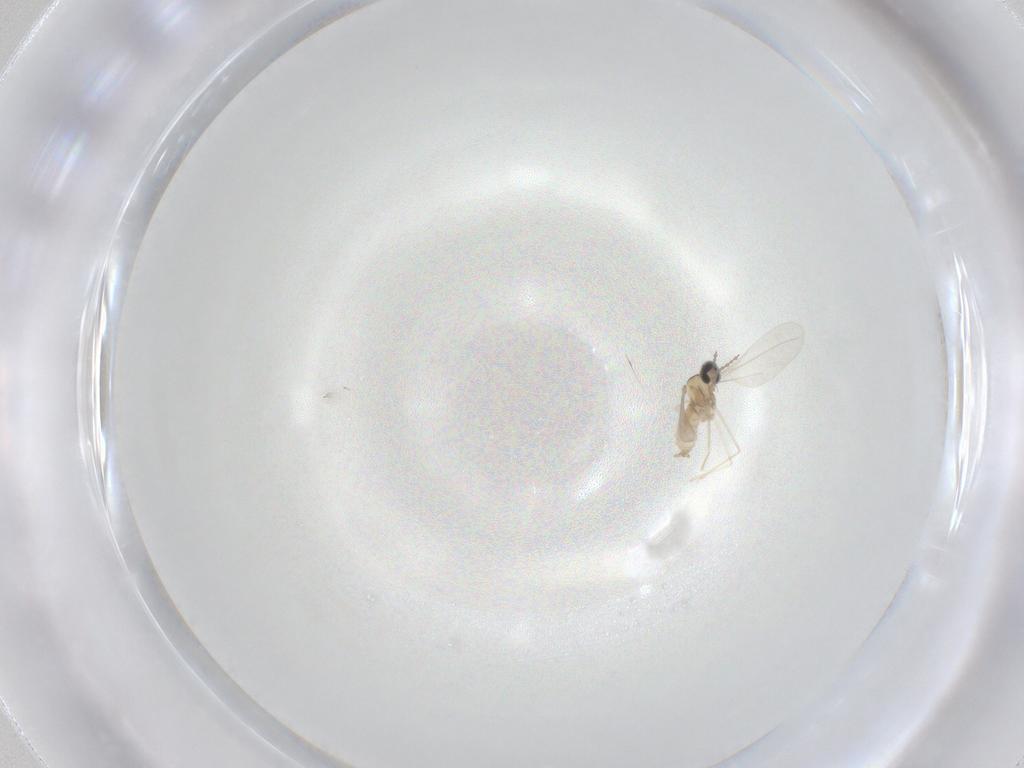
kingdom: Animalia
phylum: Arthropoda
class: Insecta
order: Diptera
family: Cecidomyiidae
